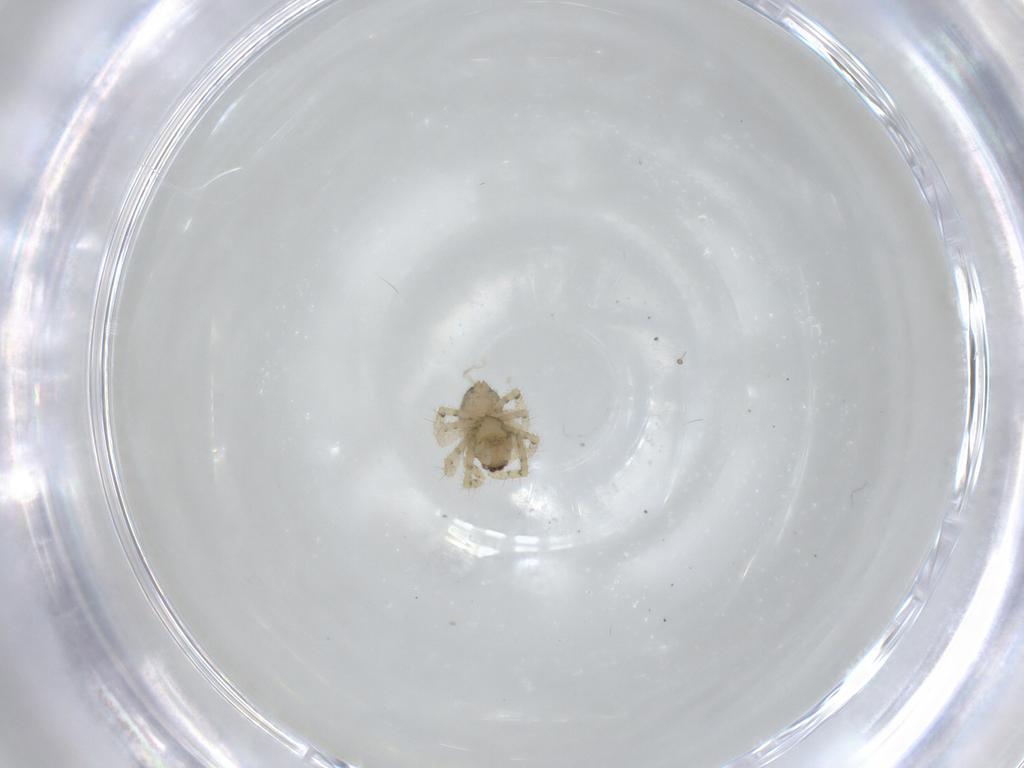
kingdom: Animalia
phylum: Arthropoda
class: Arachnida
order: Araneae
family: Theridiidae
